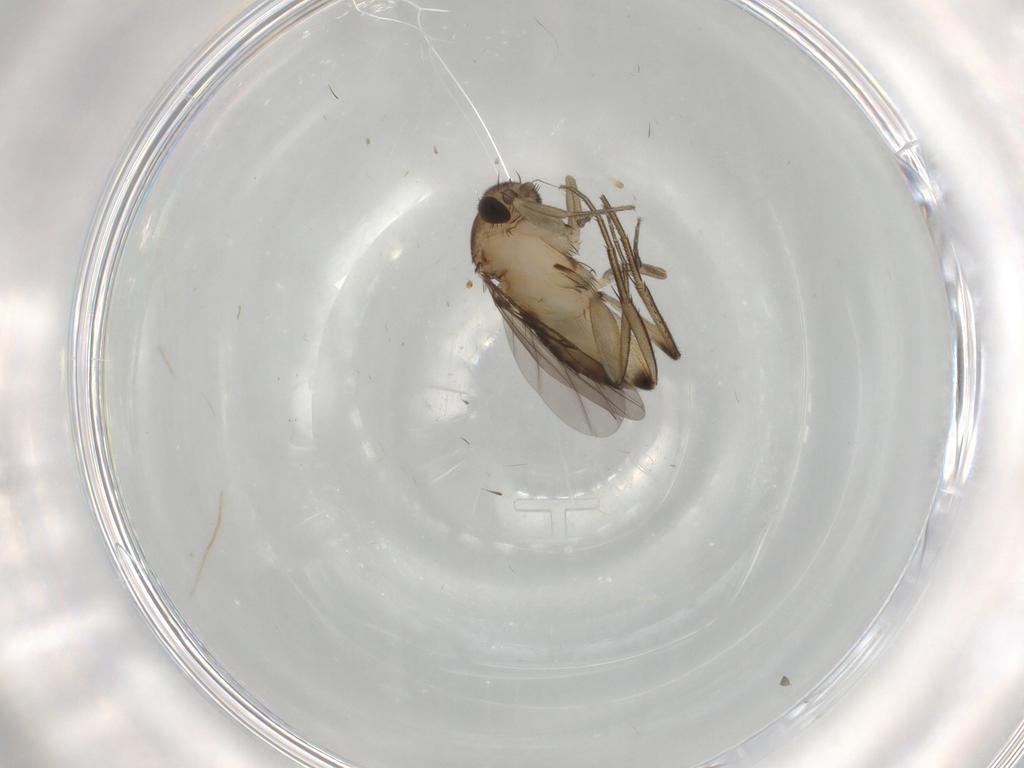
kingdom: Animalia
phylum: Arthropoda
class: Insecta
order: Diptera
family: Phoridae
